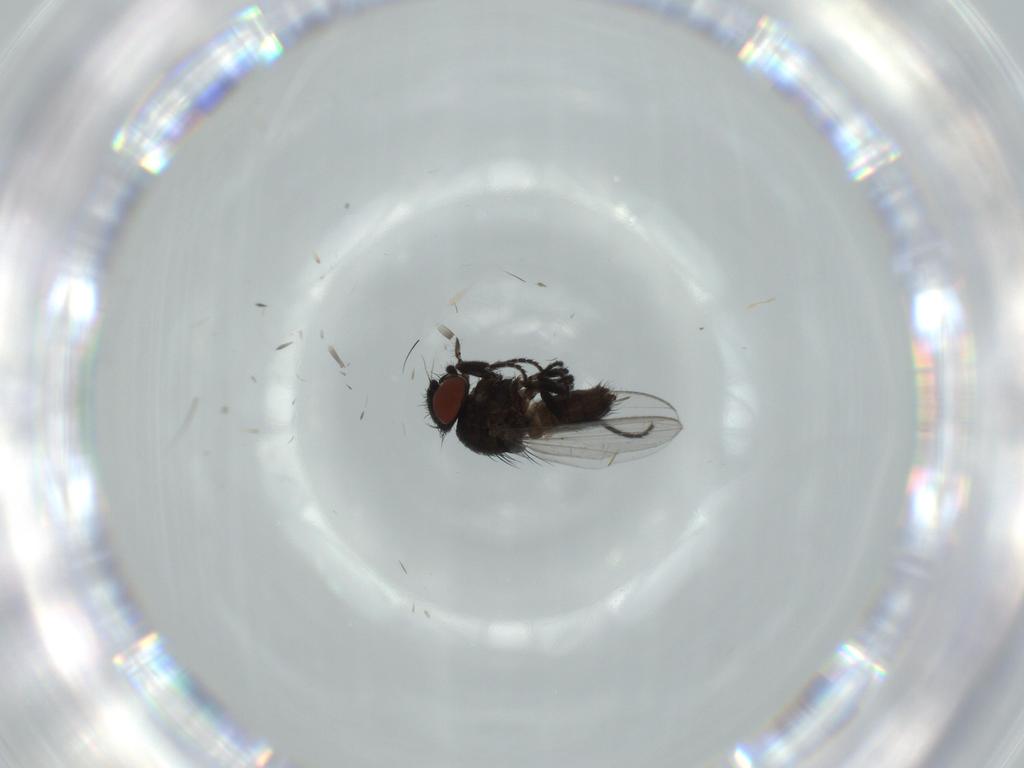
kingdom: Animalia
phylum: Arthropoda
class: Insecta
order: Diptera
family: Milichiidae
